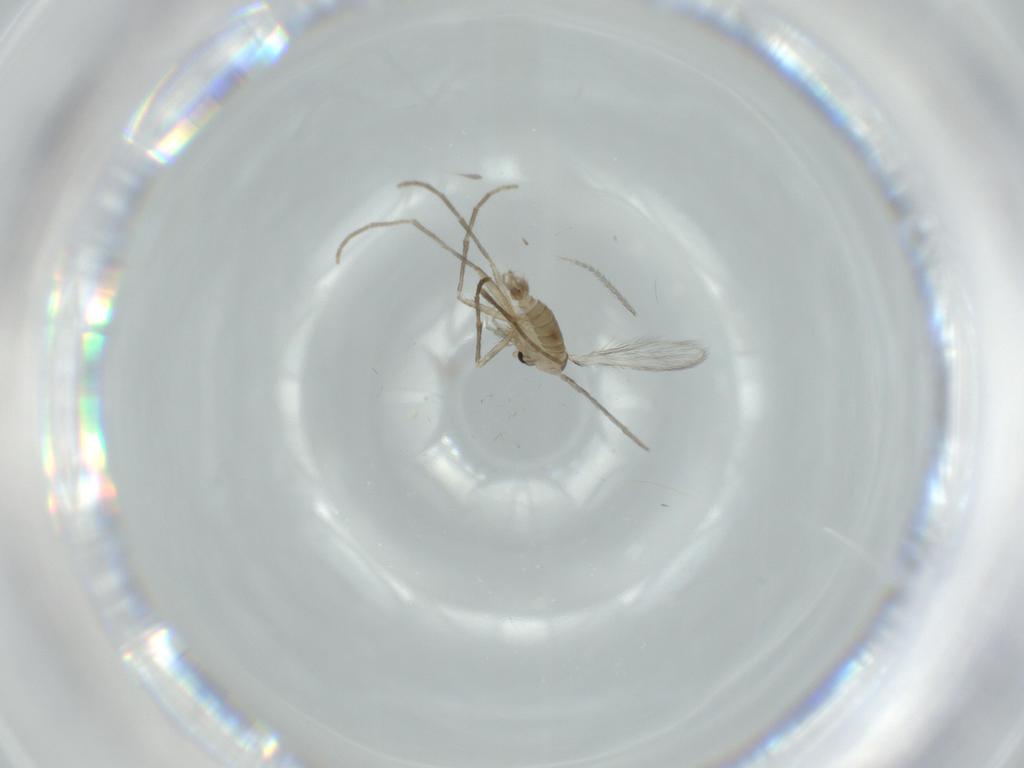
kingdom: Animalia
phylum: Arthropoda
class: Insecta
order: Diptera
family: Psychodidae
